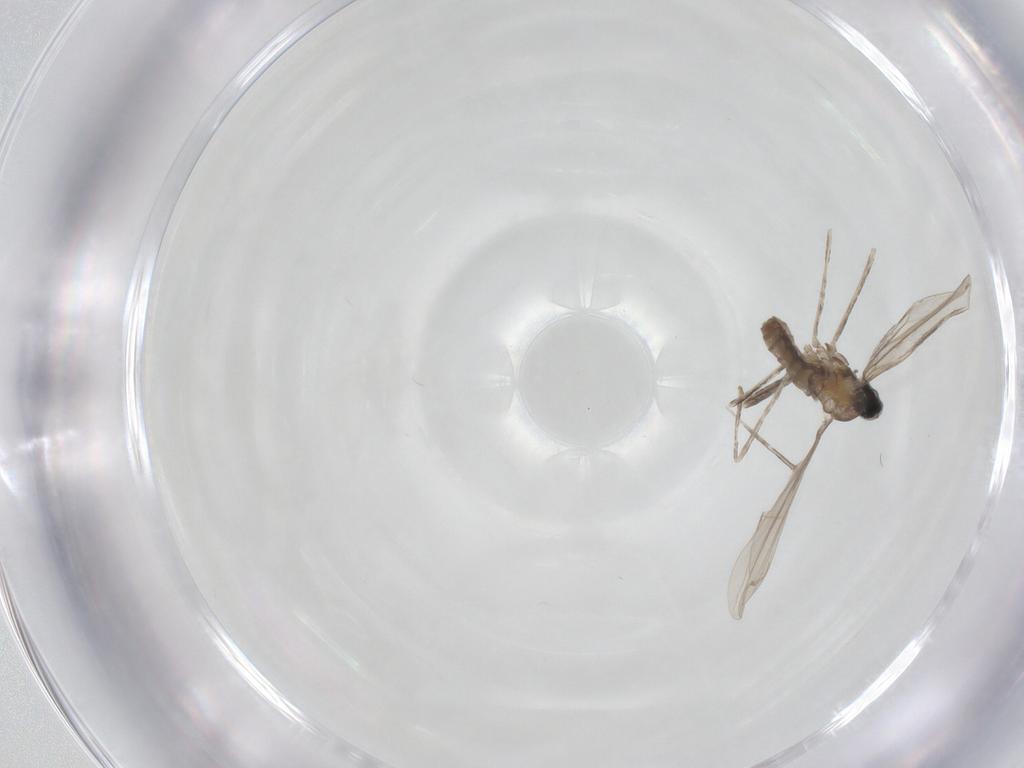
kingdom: Animalia
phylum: Arthropoda
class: Insecta
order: Diptera
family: Cecidomyiidae
